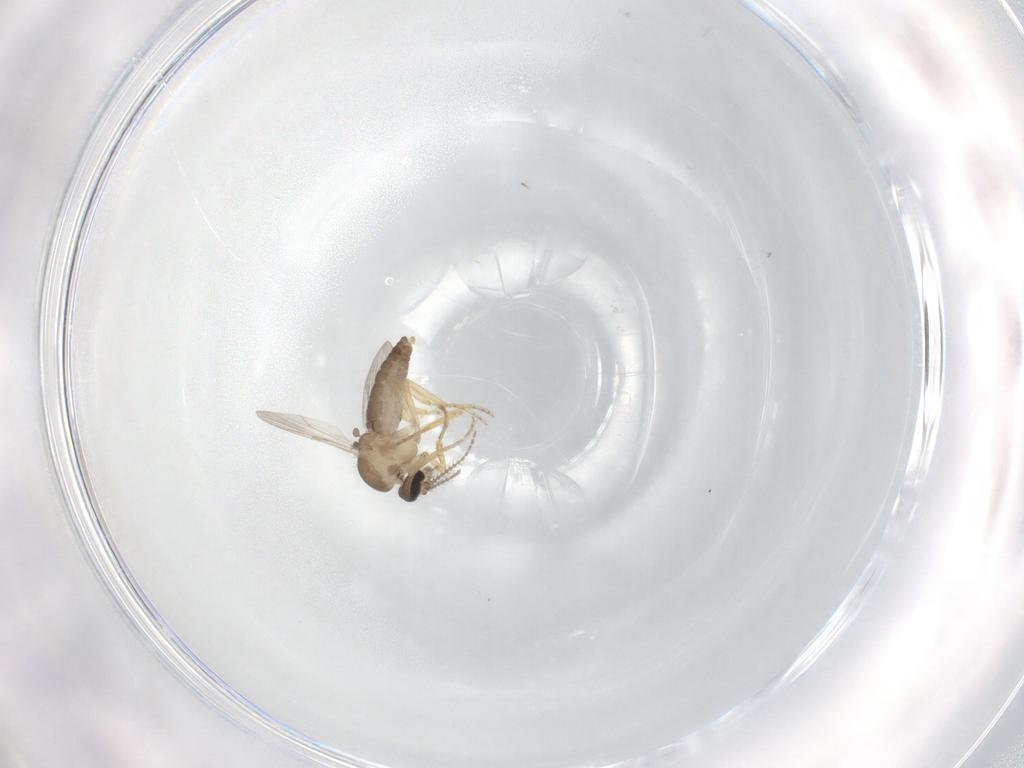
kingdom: Animalia
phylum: Arthropoda
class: Insecta
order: Diptera
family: Ceratopogonidae
